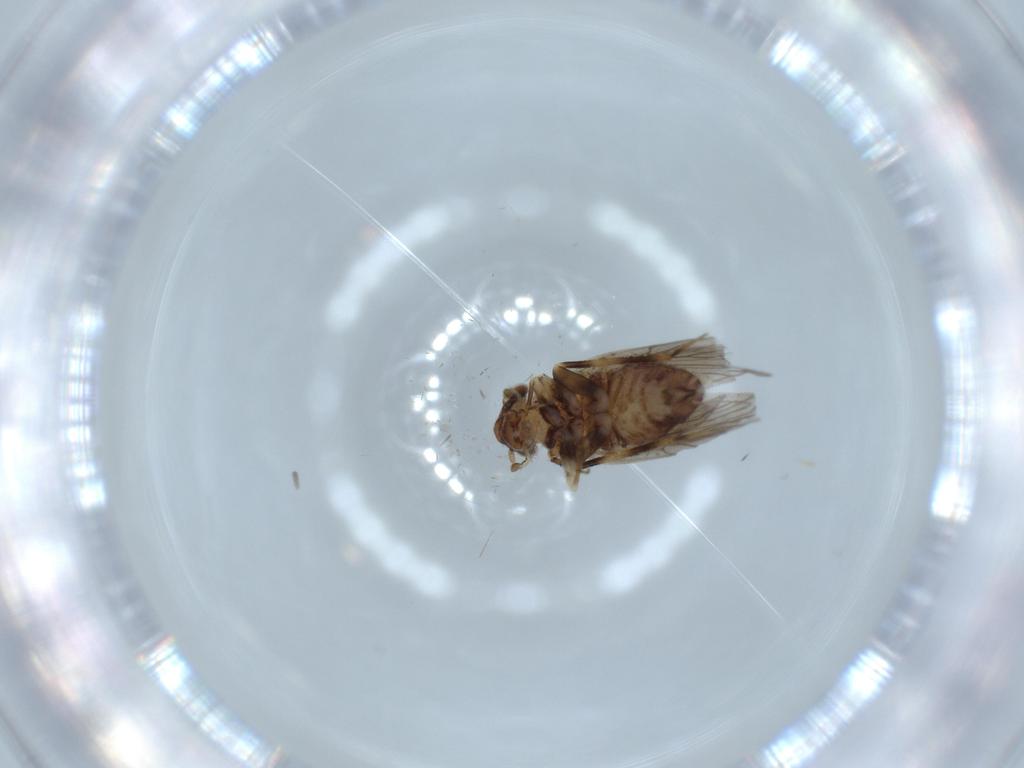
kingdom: Animalia
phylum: Arthropoda
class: Insecta
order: Psocodea
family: Lepidopsocidae
